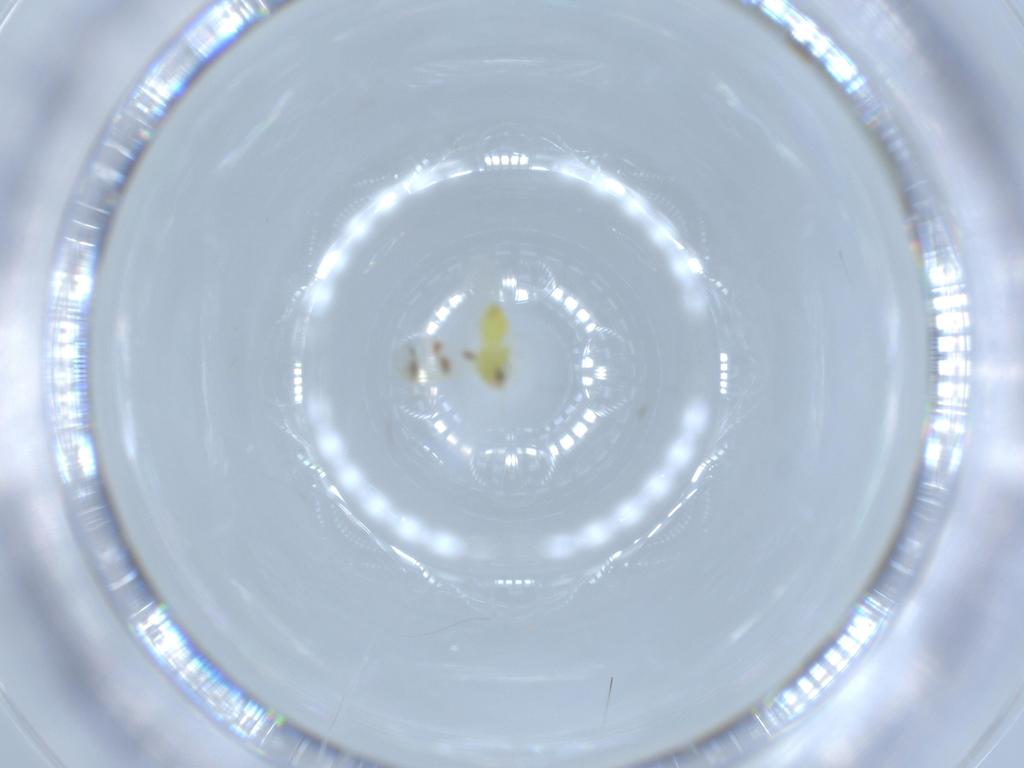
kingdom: Animalia
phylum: Arthropoda
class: Insecta
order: Hemiptera
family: Aleyrodidae
